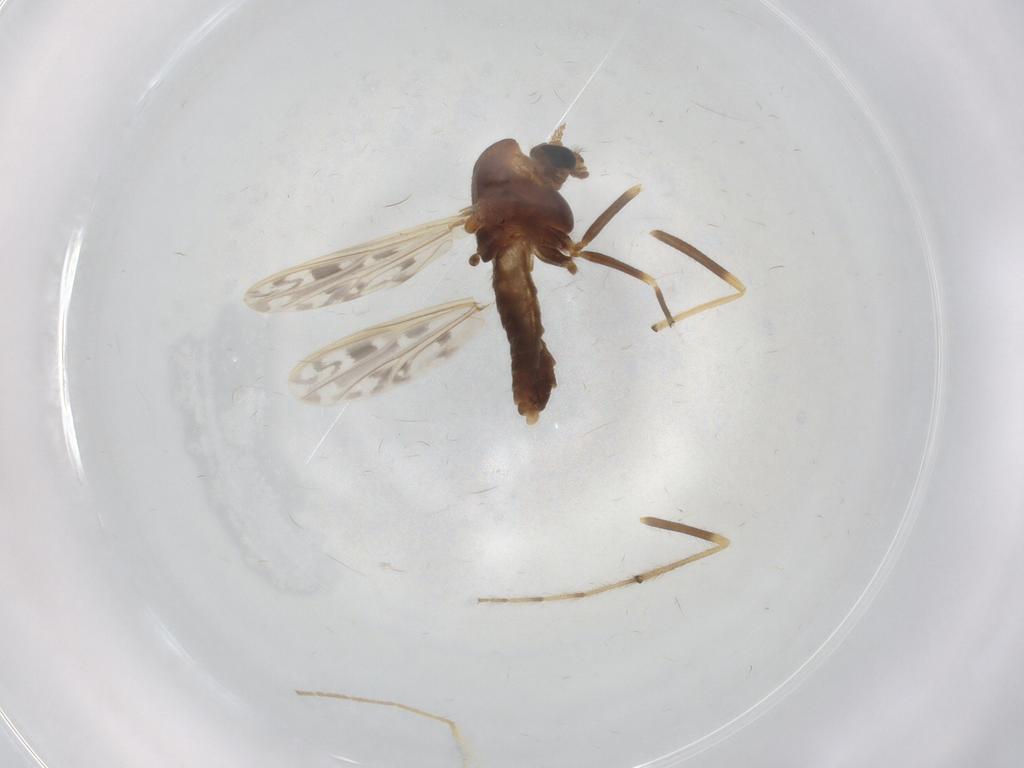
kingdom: Animalia
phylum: Arthropoda
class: Insecta
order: Diptera
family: Chironomidae
